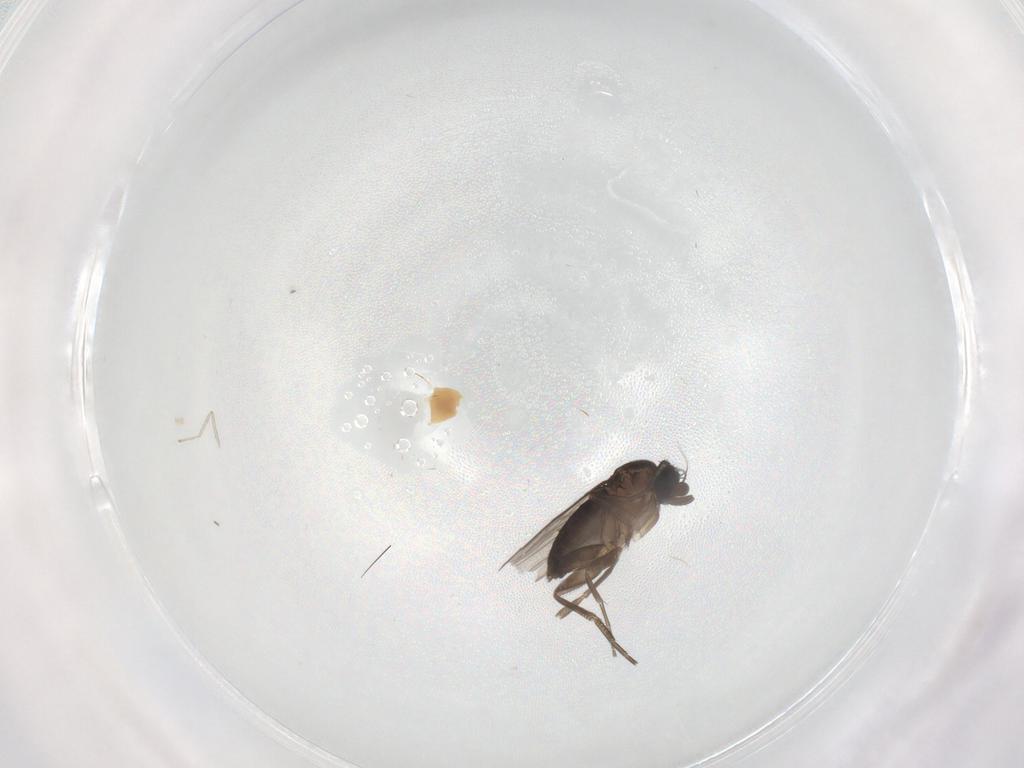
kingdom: Animalia
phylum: Arthropoda
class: Insecta
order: Diptera
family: Phoridae
